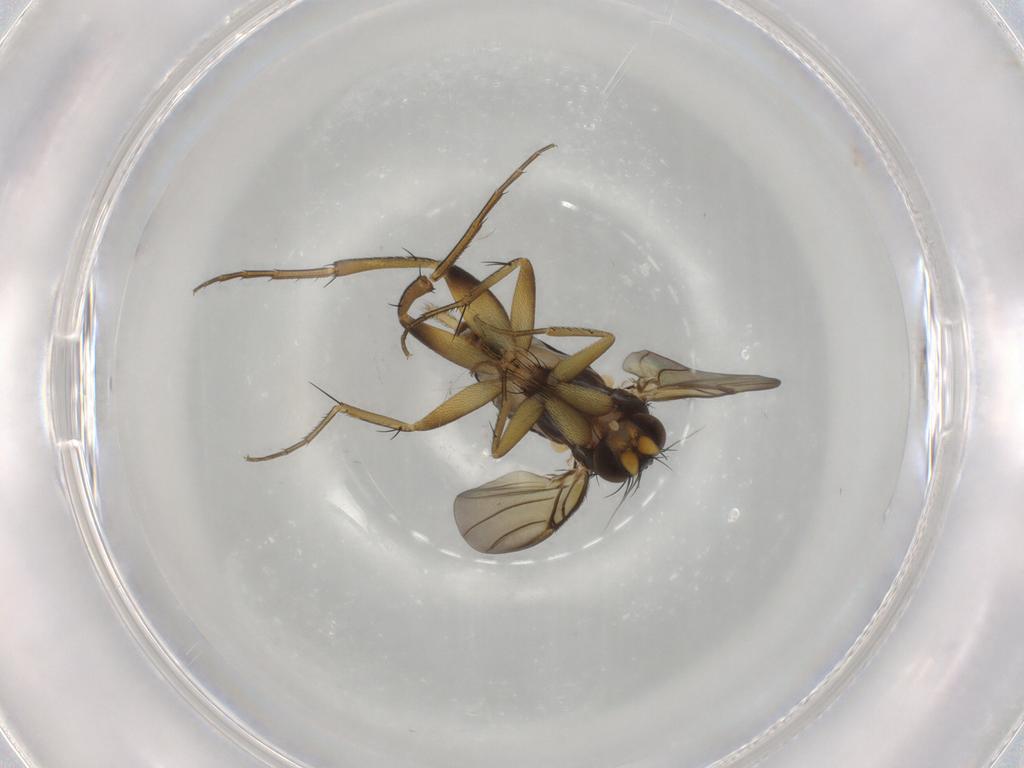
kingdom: Animalia
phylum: Arthropoda
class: Insecta
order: Diptera
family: Phoridae
